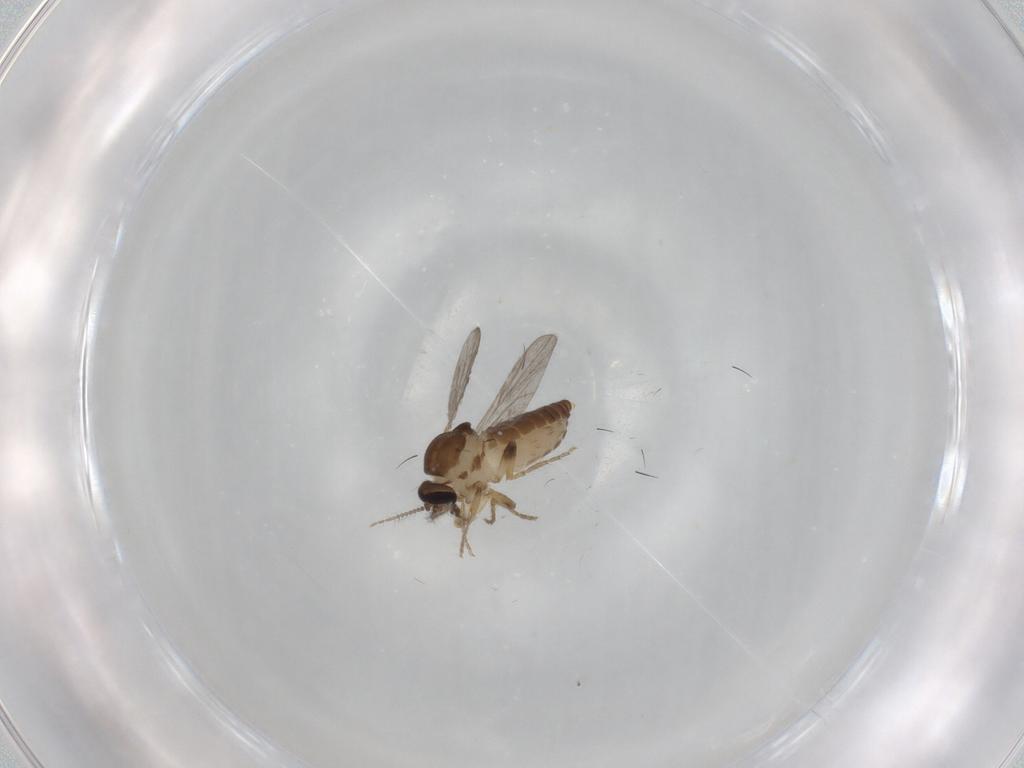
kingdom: Animalia
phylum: Arthropoda
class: Insecta
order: Diptera
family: Ceratopogonidae
